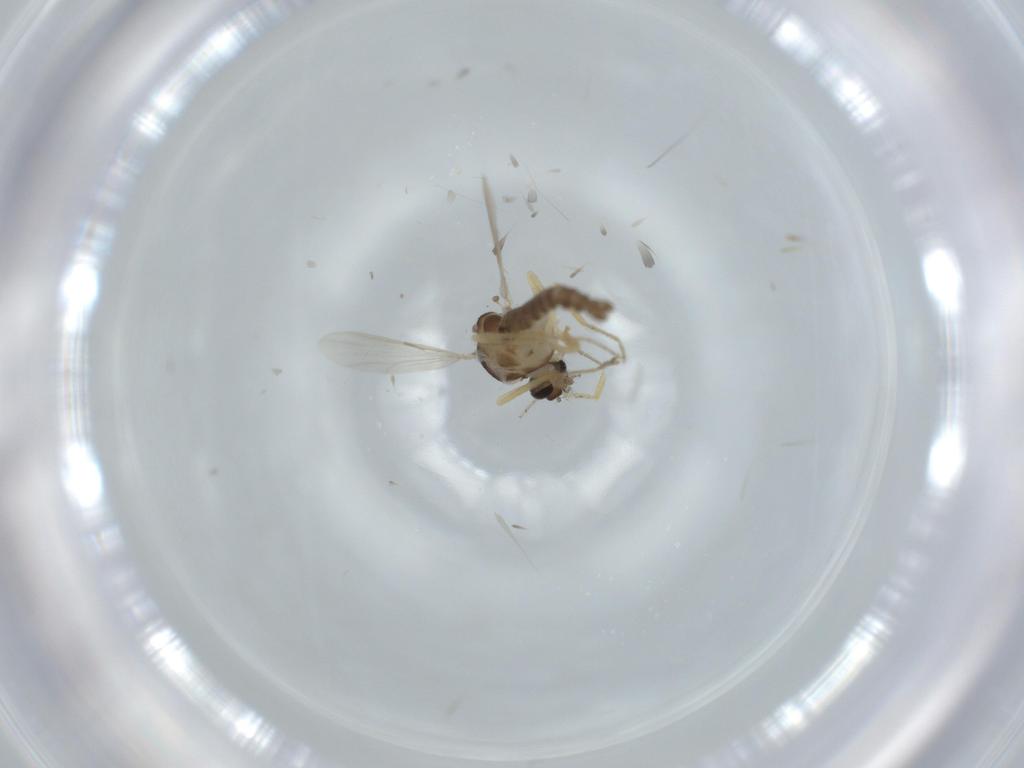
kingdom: Animalia
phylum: Arthropoda
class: Insecta
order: Diptera
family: Ceratopogonidae
